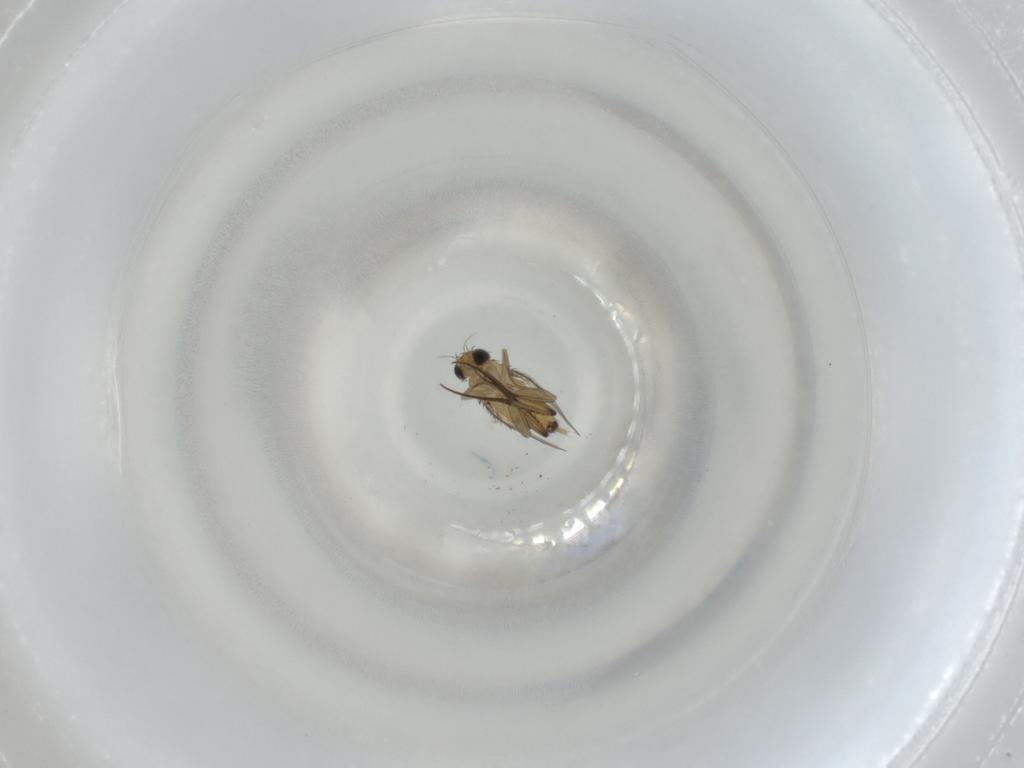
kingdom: Animalia
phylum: Arthropoda
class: Insecta
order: Diptera
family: Phoridae
